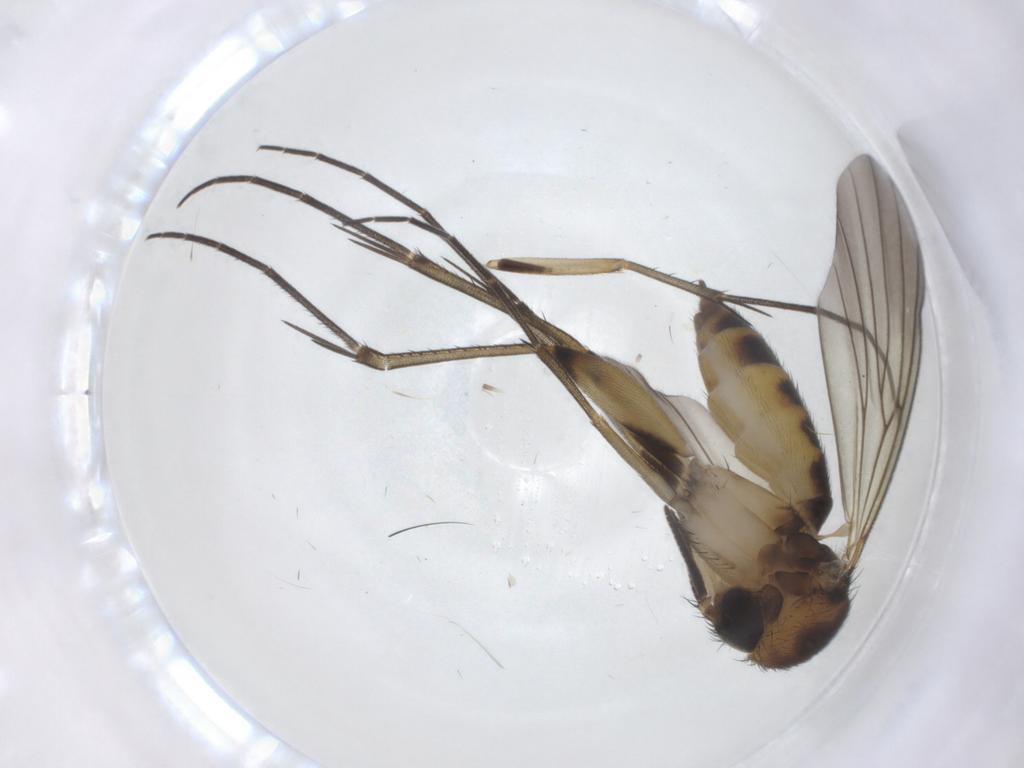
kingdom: Animalia
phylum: Arthropoda
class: Insecta
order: Diptera
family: Mycetophilidae
